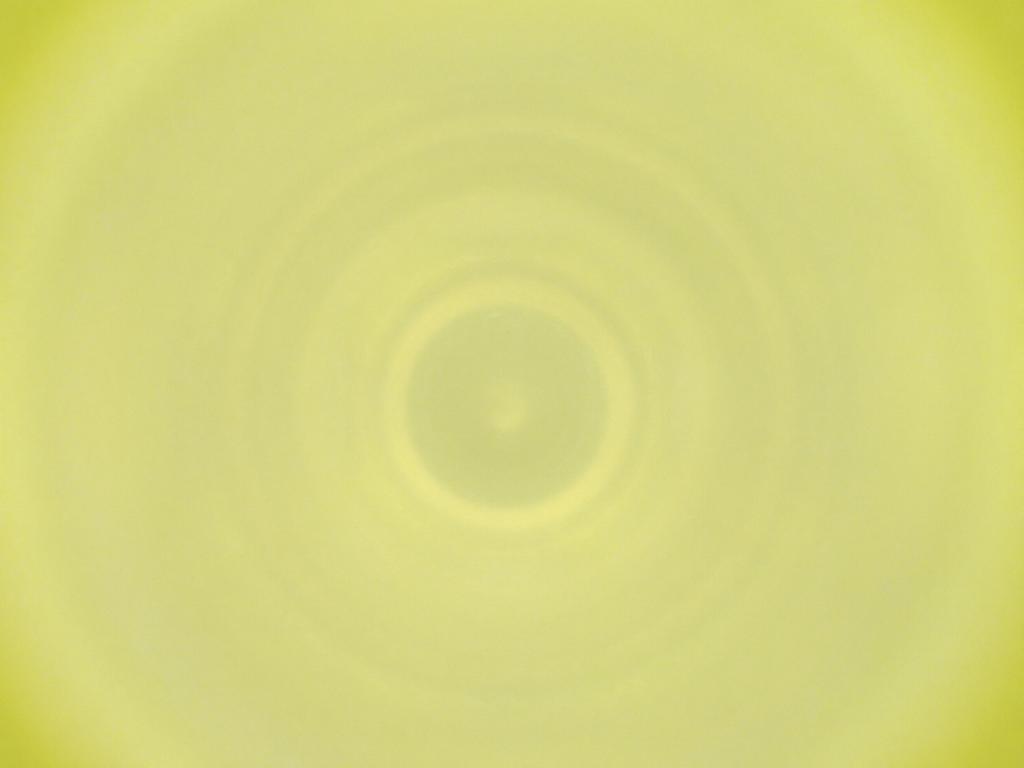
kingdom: Animalia
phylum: Arthropoda
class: Insecta
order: Diptera
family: Cecidomyiidae
